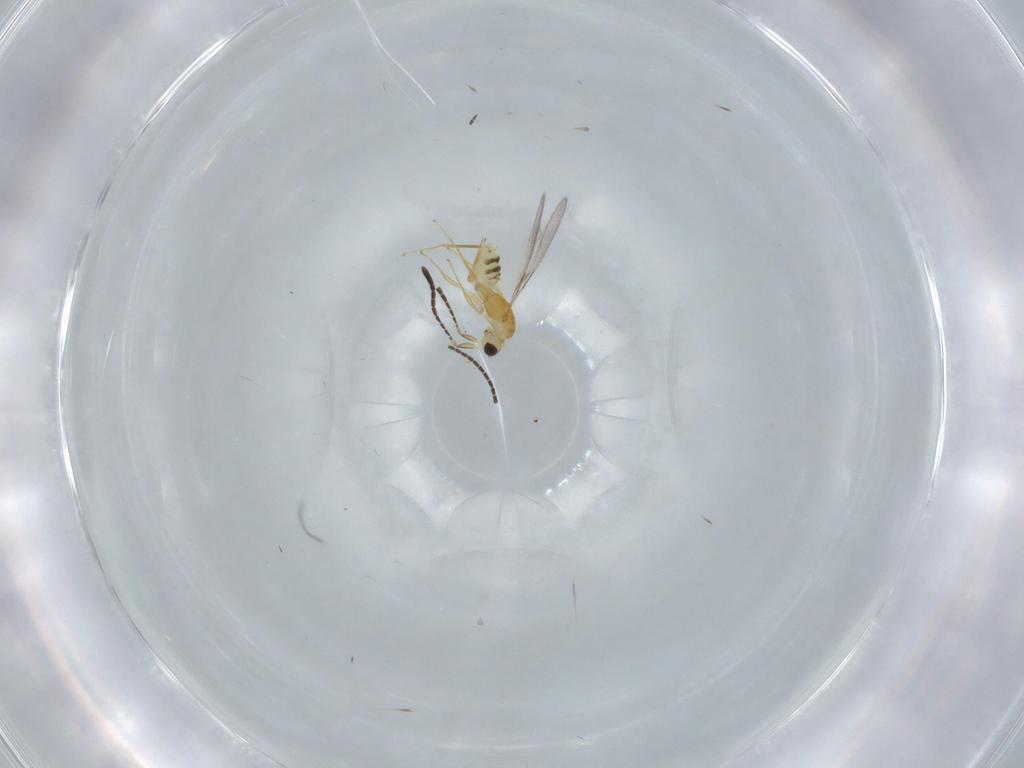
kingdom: Animalia
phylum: Arthropoda
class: Insecta
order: Hymenoptera
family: Mymaridae
